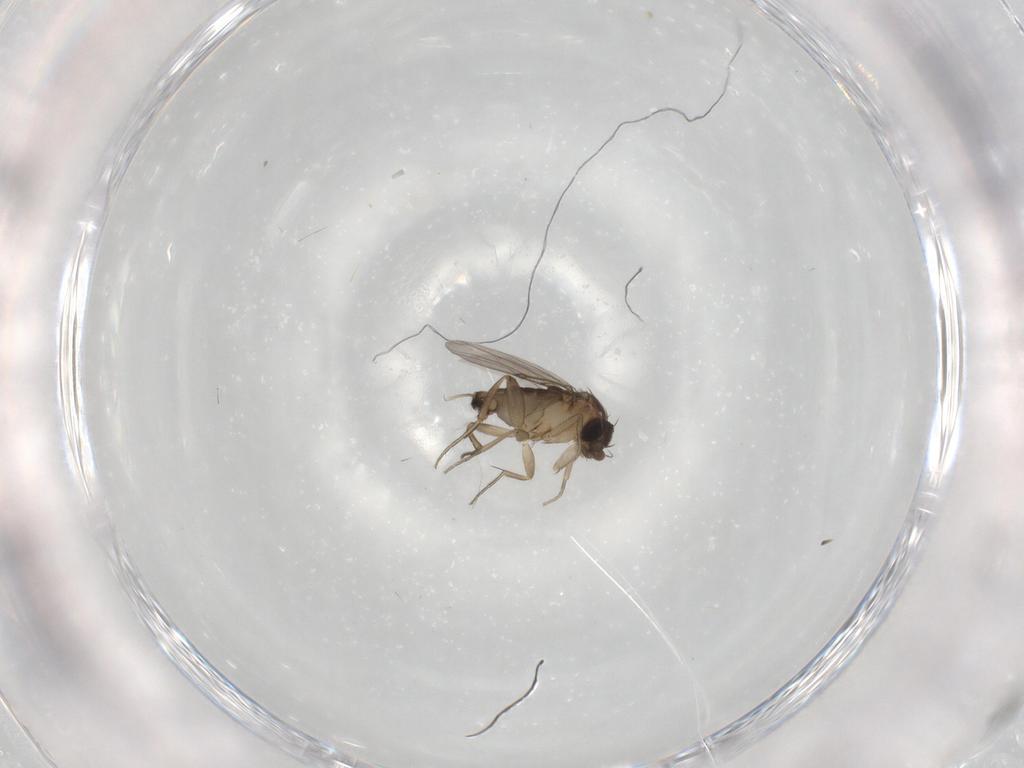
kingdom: Animalia
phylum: Arthropoda
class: Insecta
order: Diptera
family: Phoridae
